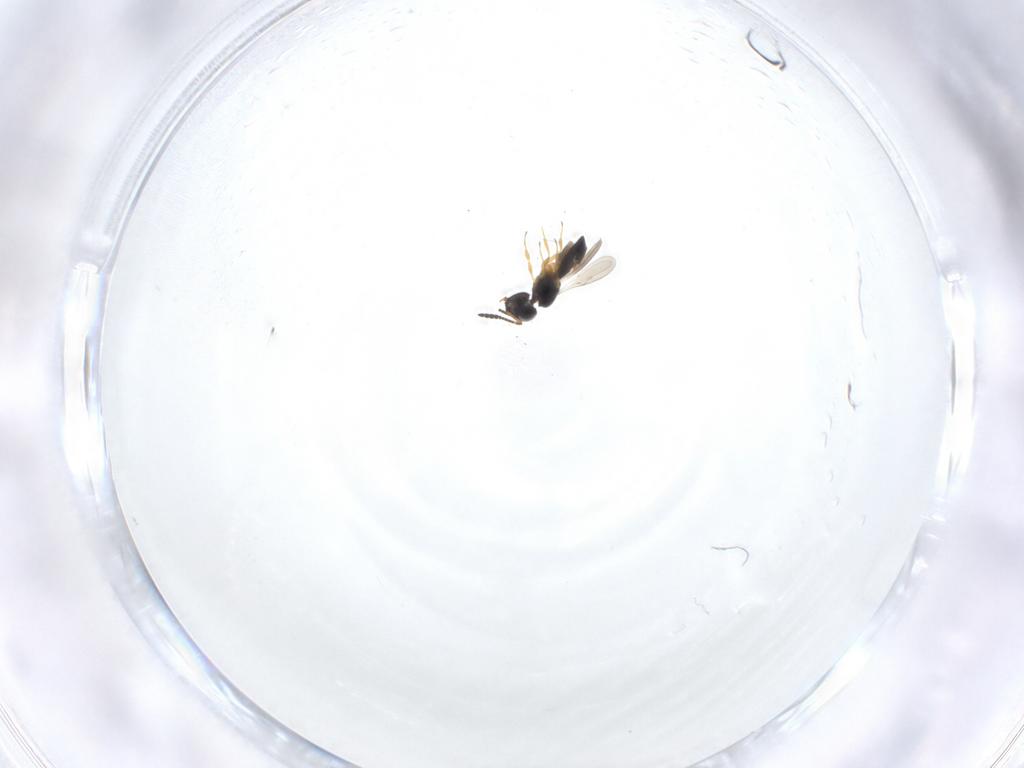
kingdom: Animalia
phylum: Arthropoda
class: Insecta
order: Hymenoptera
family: Scelionidae
